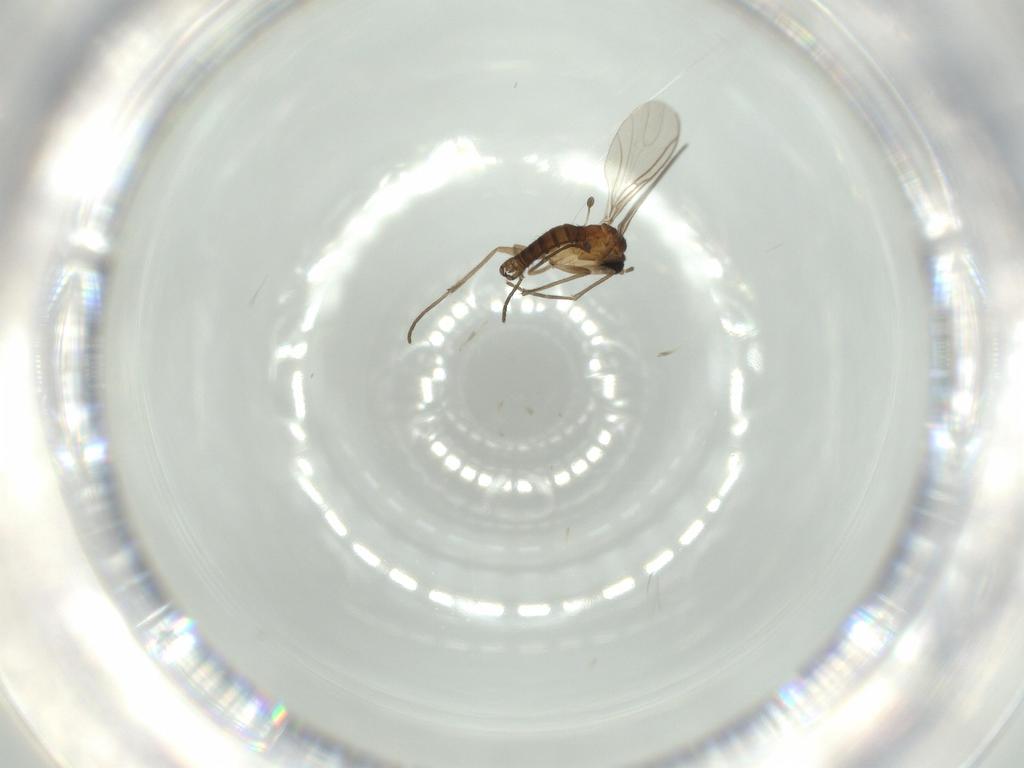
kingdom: Animalia
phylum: Arthropoda
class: Insecta
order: Diptera
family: Sciaridae
